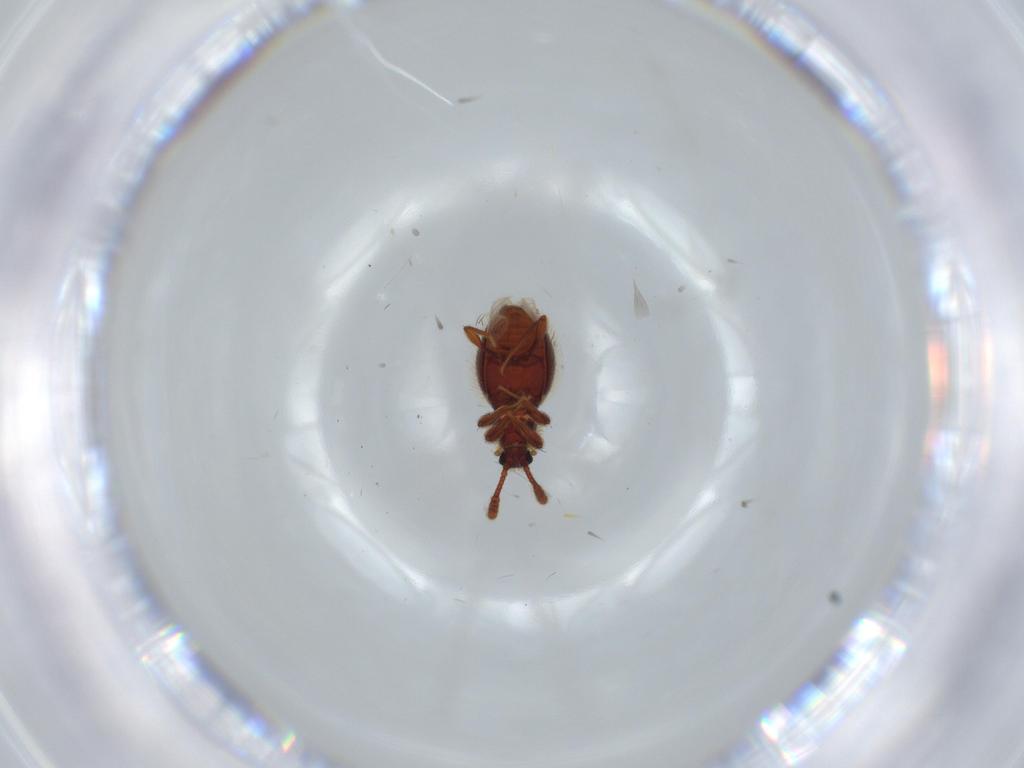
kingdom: Animalia
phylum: Arthropoda
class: Insecta
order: Coleoptera
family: Staphylinidae
